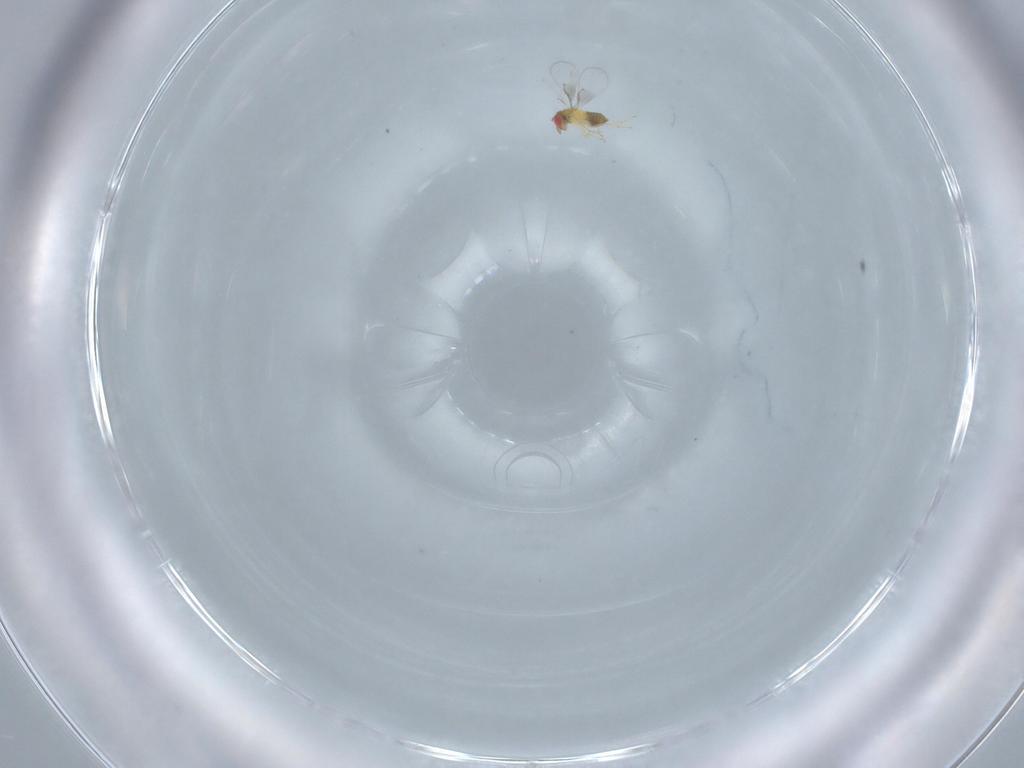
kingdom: Animalia
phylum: Arthropoda
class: Insecta
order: Hymenoptera
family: Trichogrammatidae
